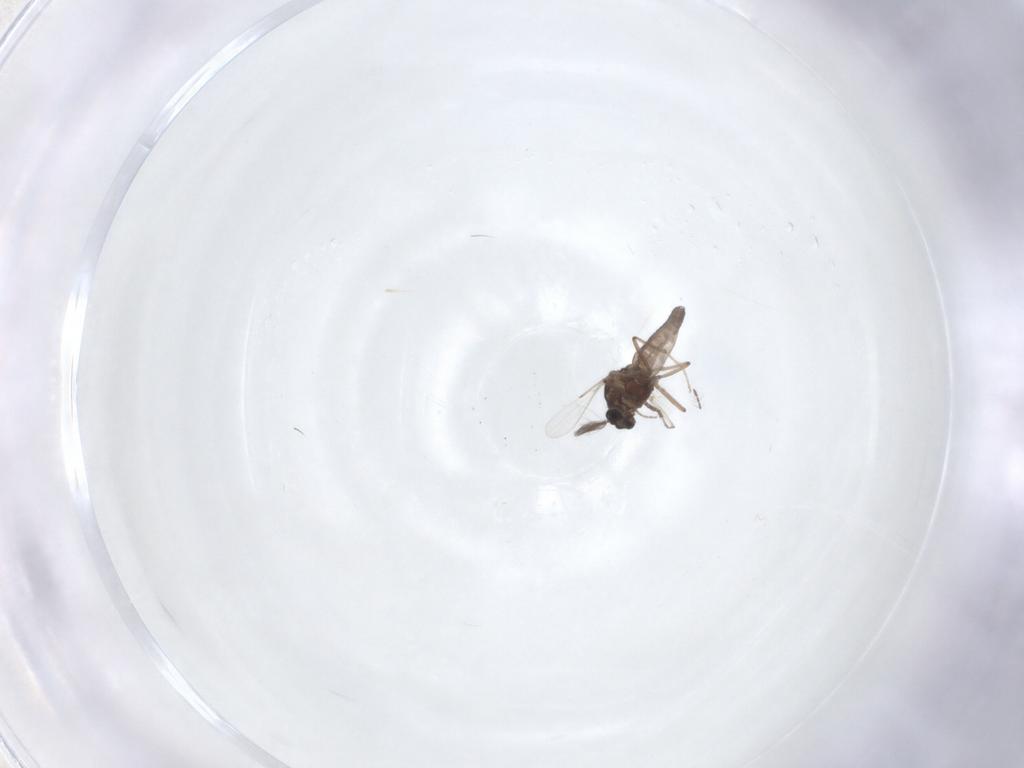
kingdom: Animalia
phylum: Arthropoda
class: Insecta
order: Diptera
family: Ceratopogonidae
